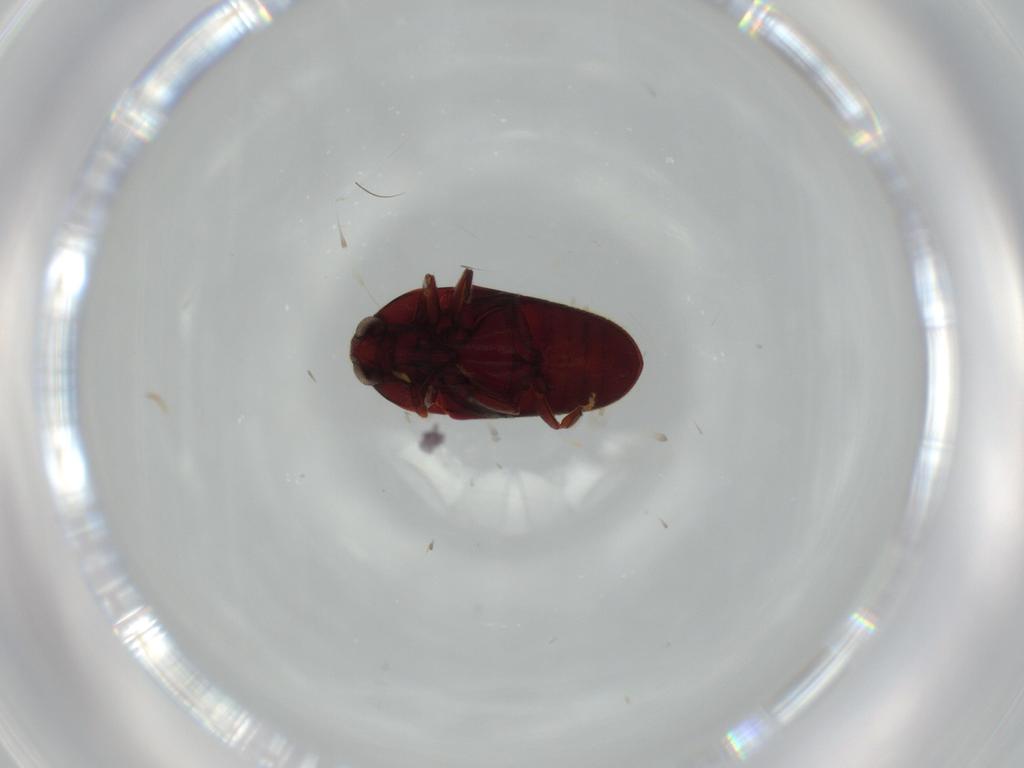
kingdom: Animalia
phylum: Arthropoda
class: Insecta
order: Coleoptera
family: Throscidae
